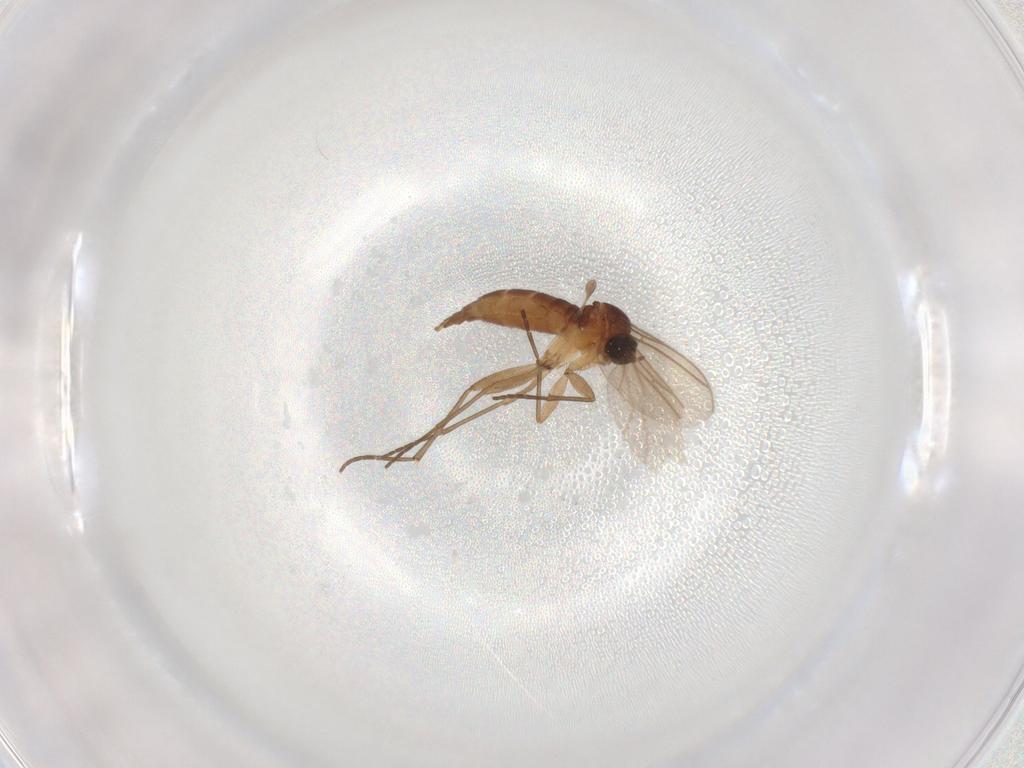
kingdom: Animalia
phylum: Arthropoda
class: Insecta
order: Diptera
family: Sciaridae
